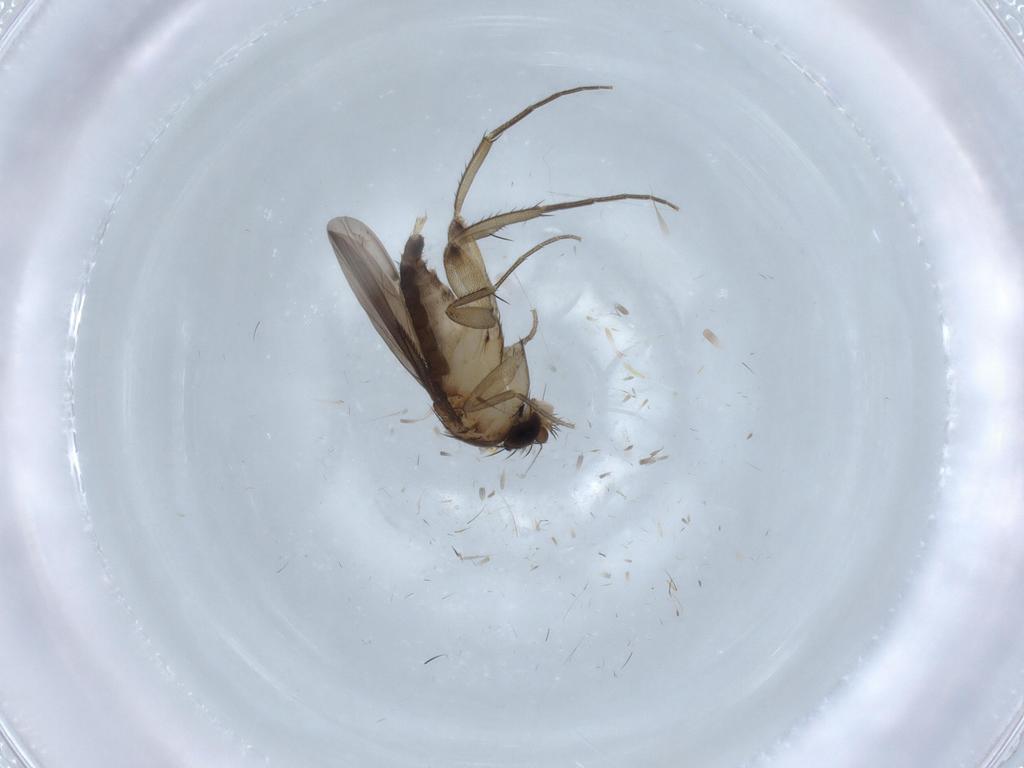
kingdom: Animalia
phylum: Arthropoda
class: Insecta
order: Diptera
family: Phoridae
